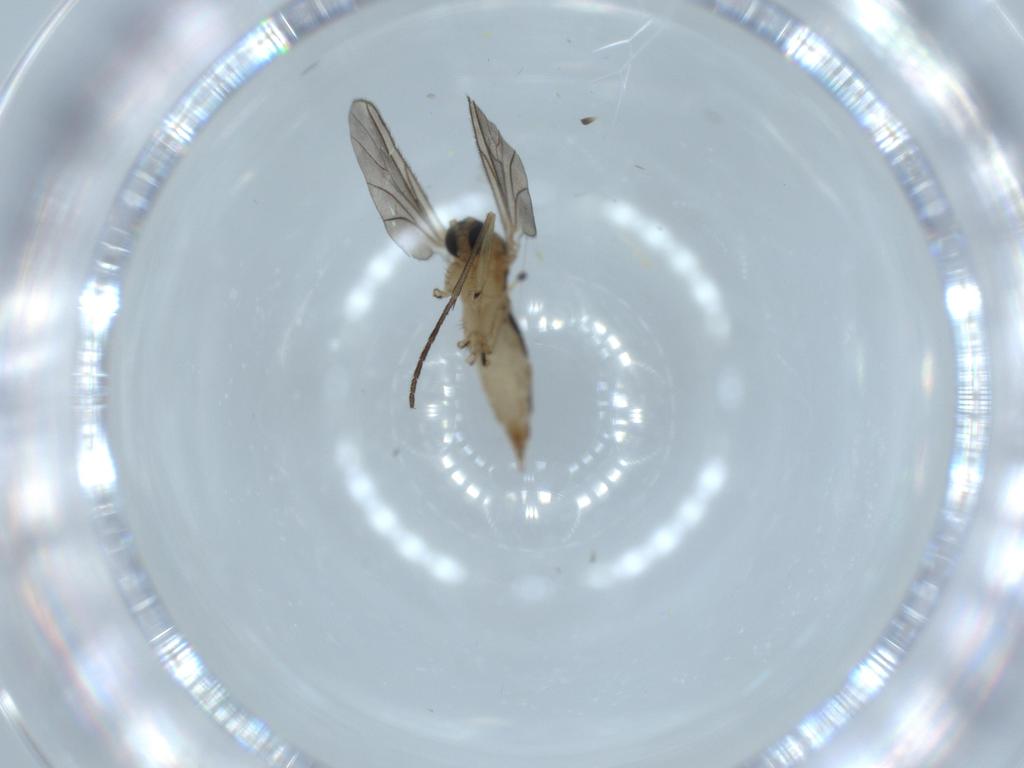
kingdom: Animalia
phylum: Arthropoda
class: Insecta
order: Diptera
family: Sciaridae
